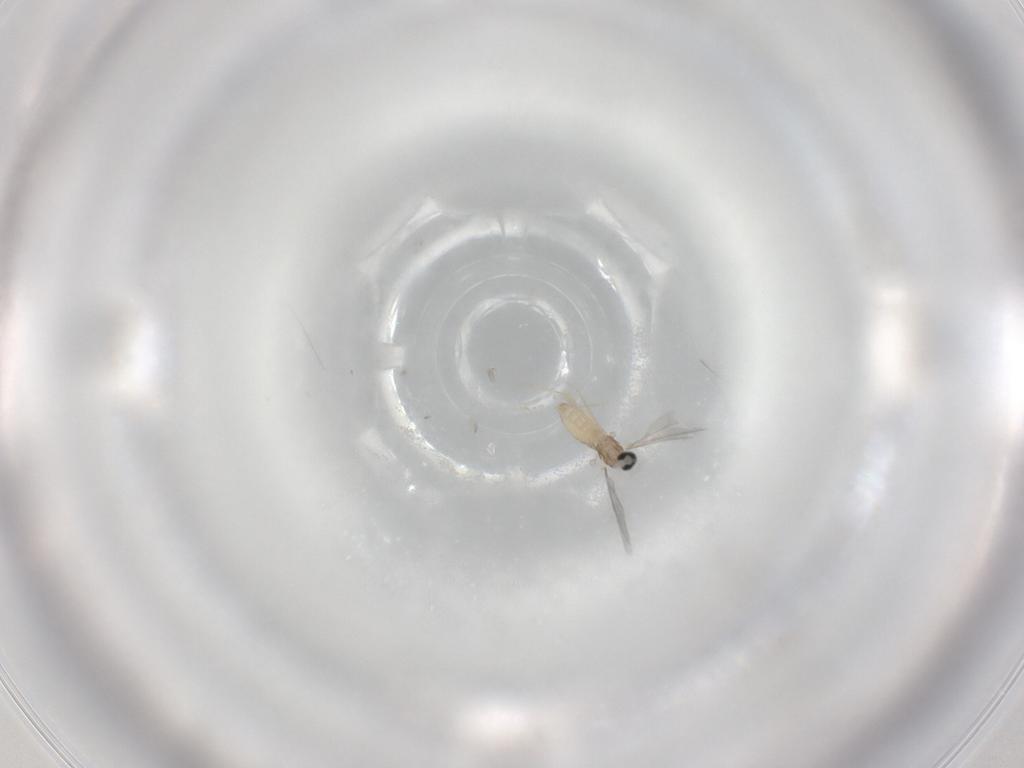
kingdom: Animalia
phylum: Arthropoda
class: Insecta
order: Diptera
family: Cecidomyiidae
